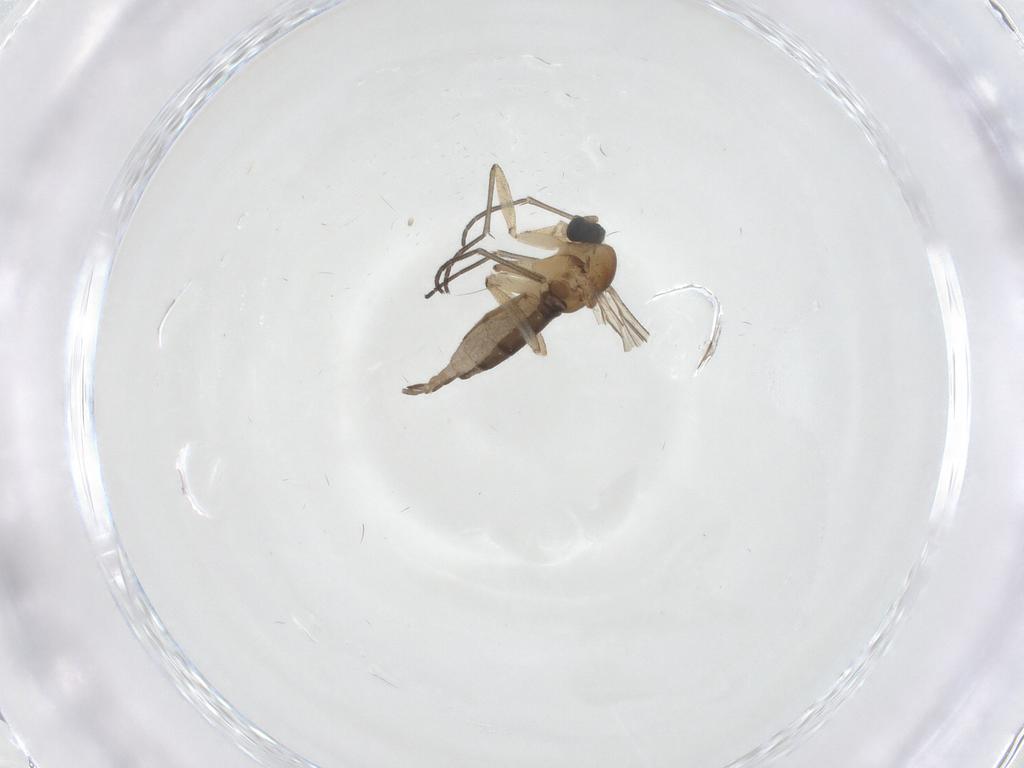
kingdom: Animalia
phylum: Arthropoda
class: Insecta
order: Diptera
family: Sciaridae
